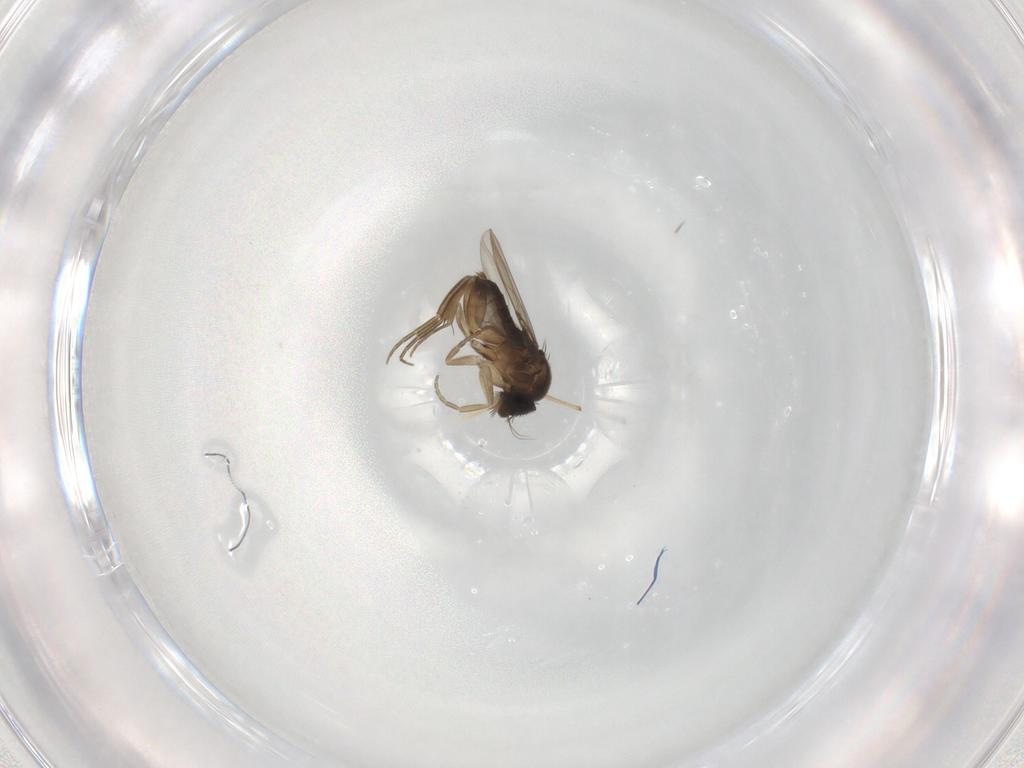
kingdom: Animalia
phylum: Arthropoda
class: Insecta
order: Diptera
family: Phoridae
